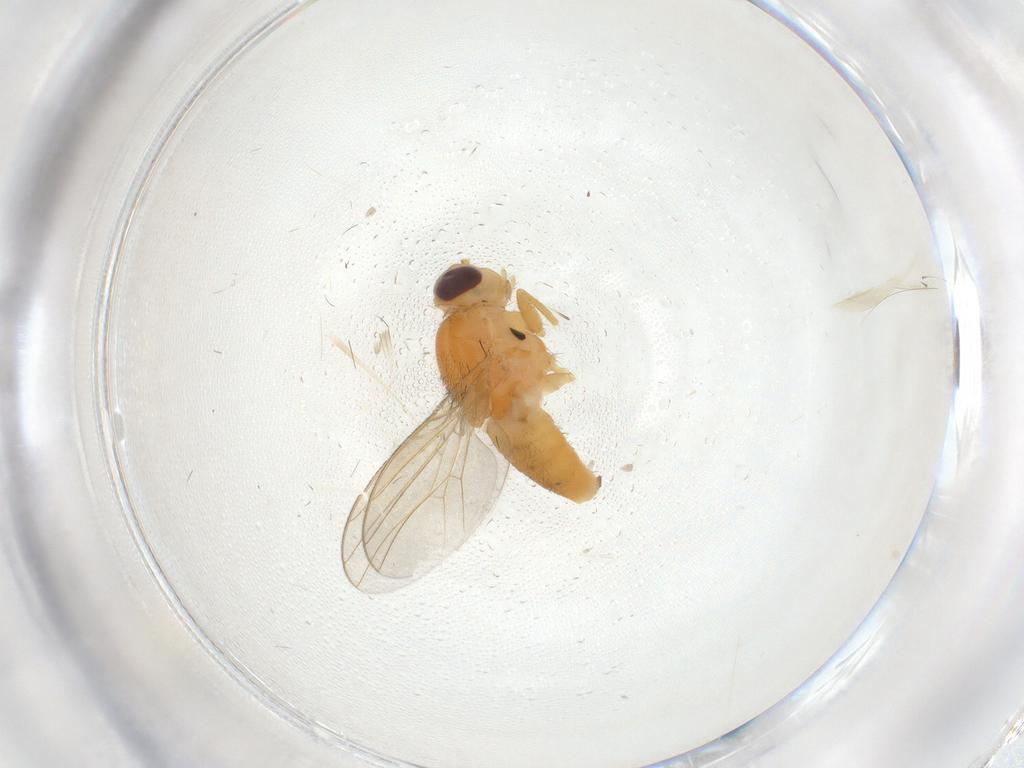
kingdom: Animalia
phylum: Arthropoda
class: Insecta
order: Diptera
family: Chloropidae
